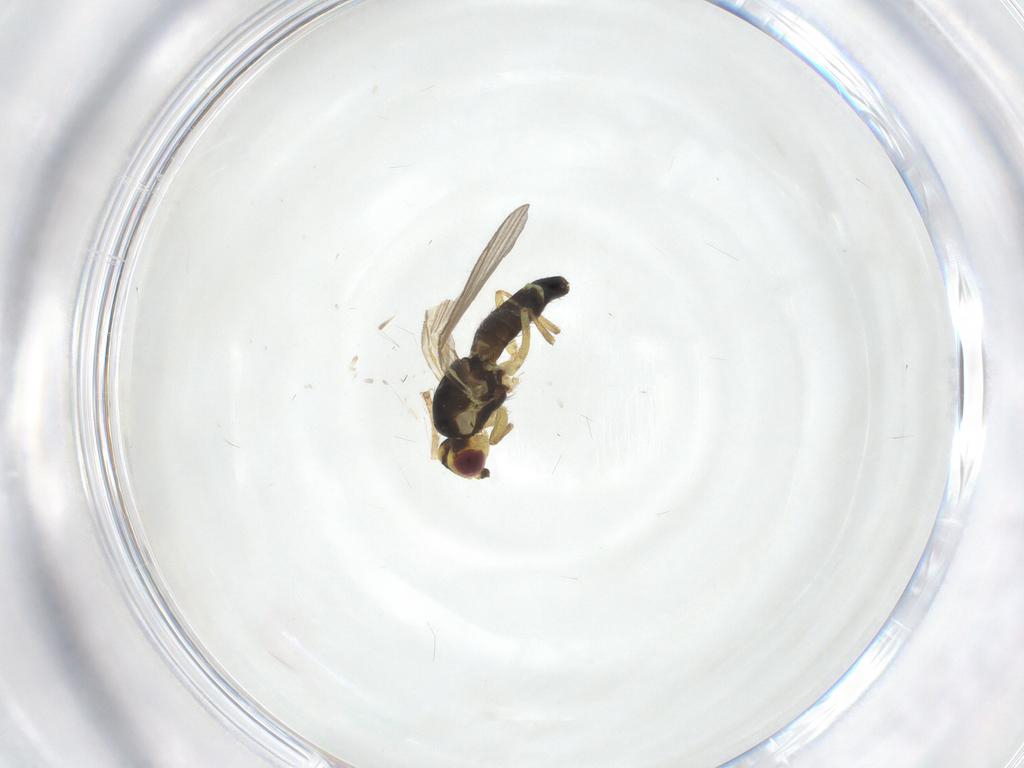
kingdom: Animalia
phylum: Arthropoda
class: Insecta
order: Diptera
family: Agromyzidae
